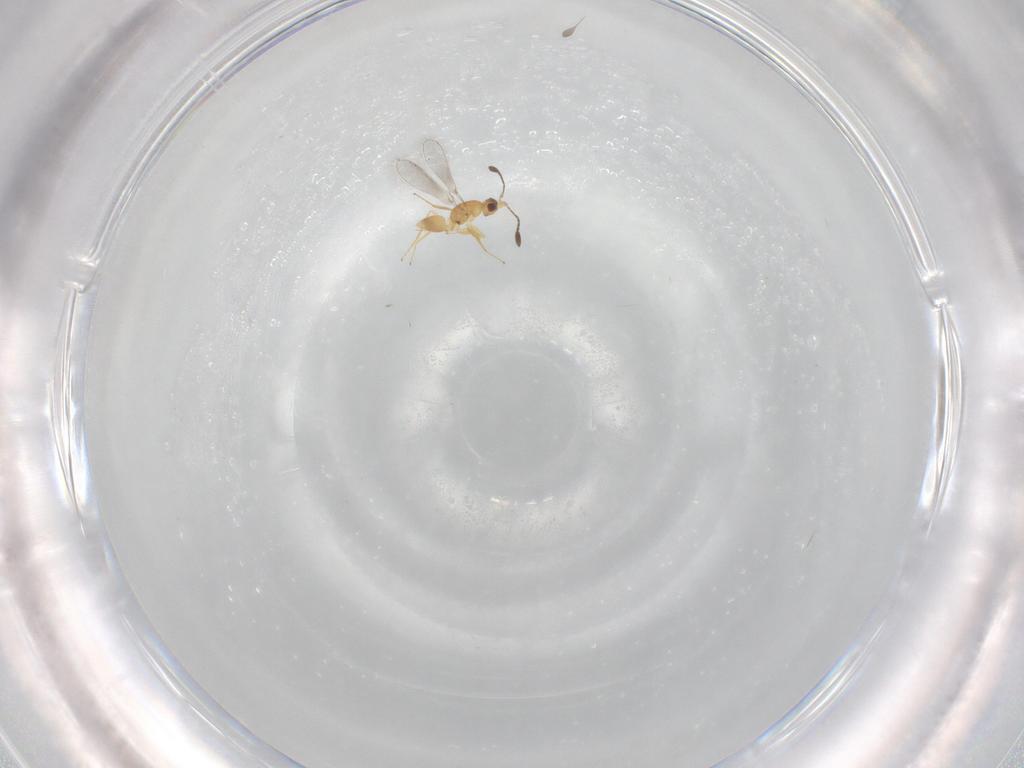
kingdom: Animalia
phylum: Arthropoda
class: Insecta
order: Hymenoptera
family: Mymaridae
